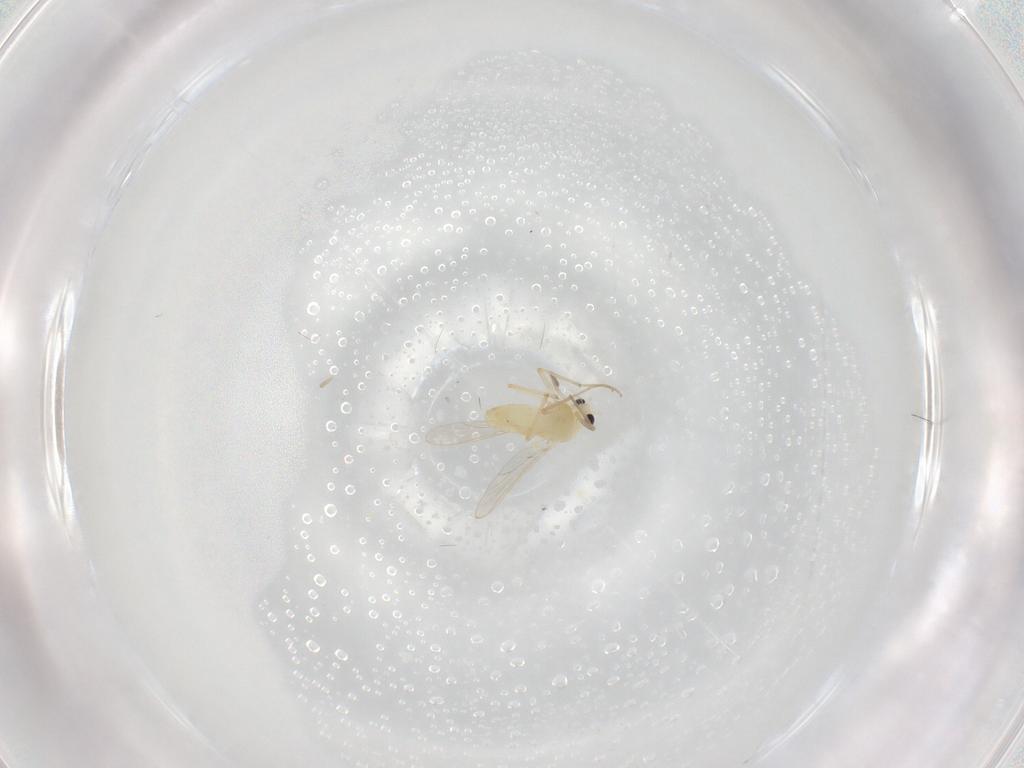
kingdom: Animalia
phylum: Arthropoda
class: Insecta
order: Diptera
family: Chironomidae
